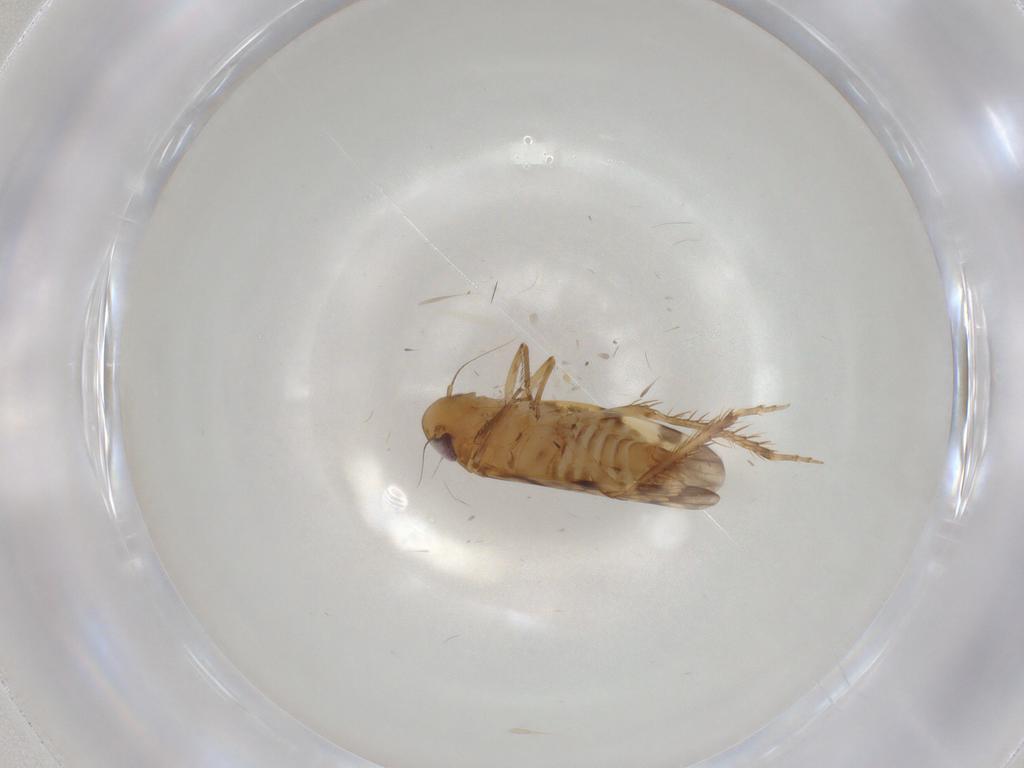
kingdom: Animalia
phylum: Arthropoda
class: Insecta
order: Hemiptera
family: Cicadellidae
